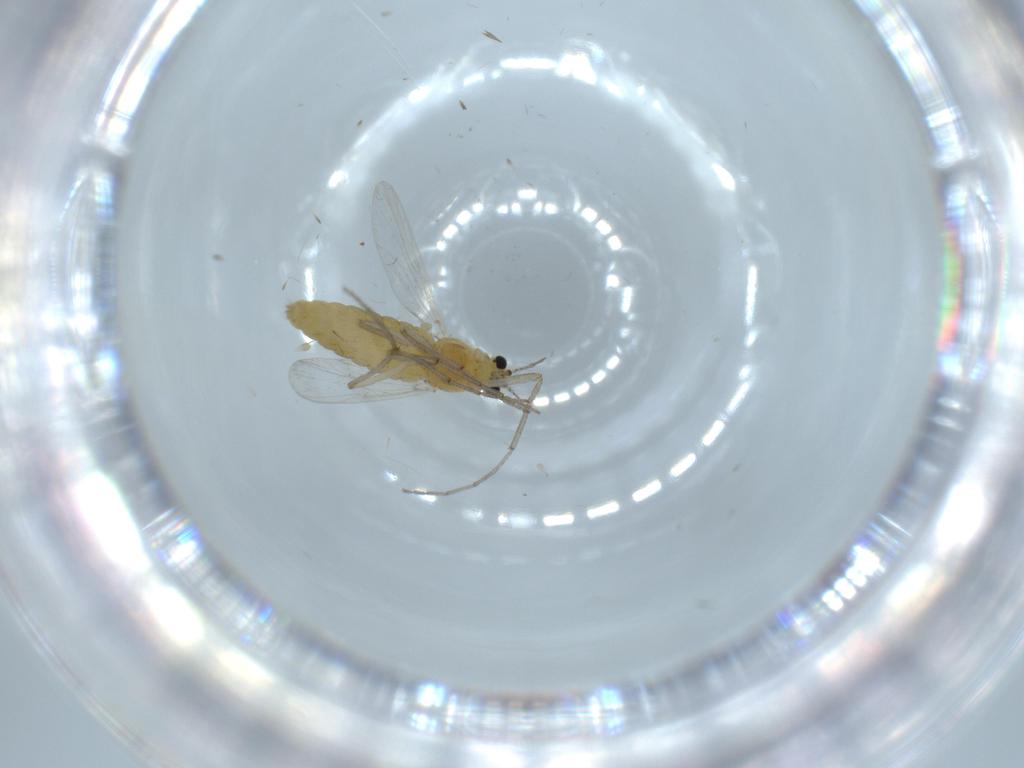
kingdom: Animalia
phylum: Arthropoda
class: Insecta
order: Diptera
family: Chironomidae
